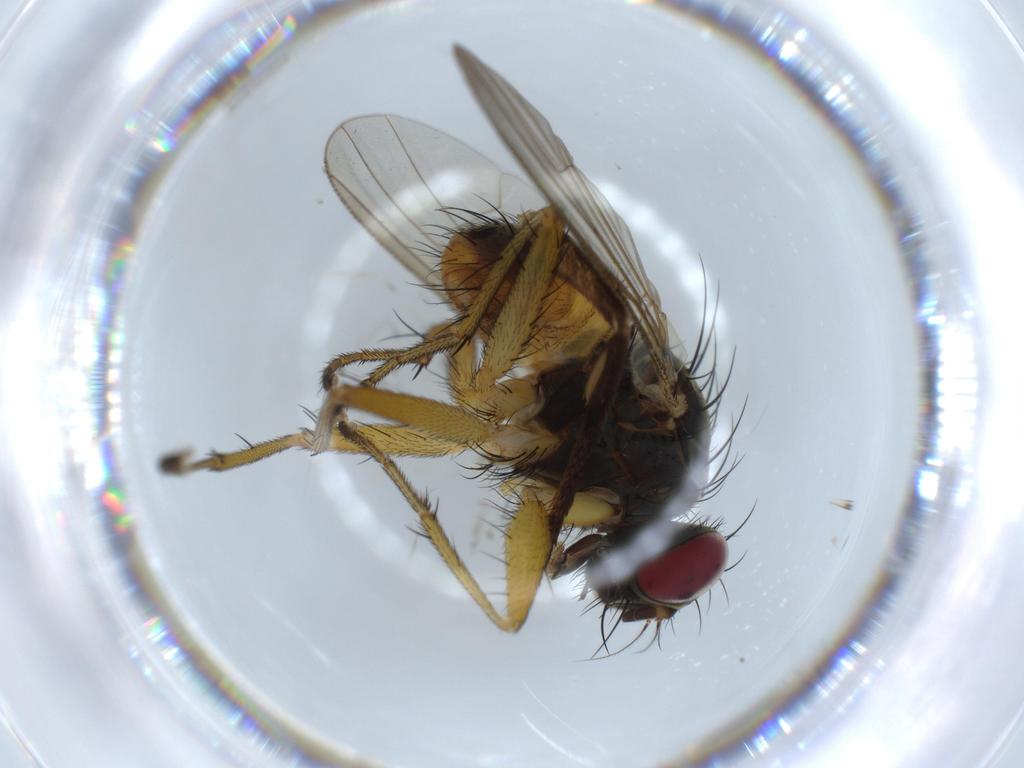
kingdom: Animalia
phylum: Arthropoda
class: Insecta
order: Diptera
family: Muscidae
